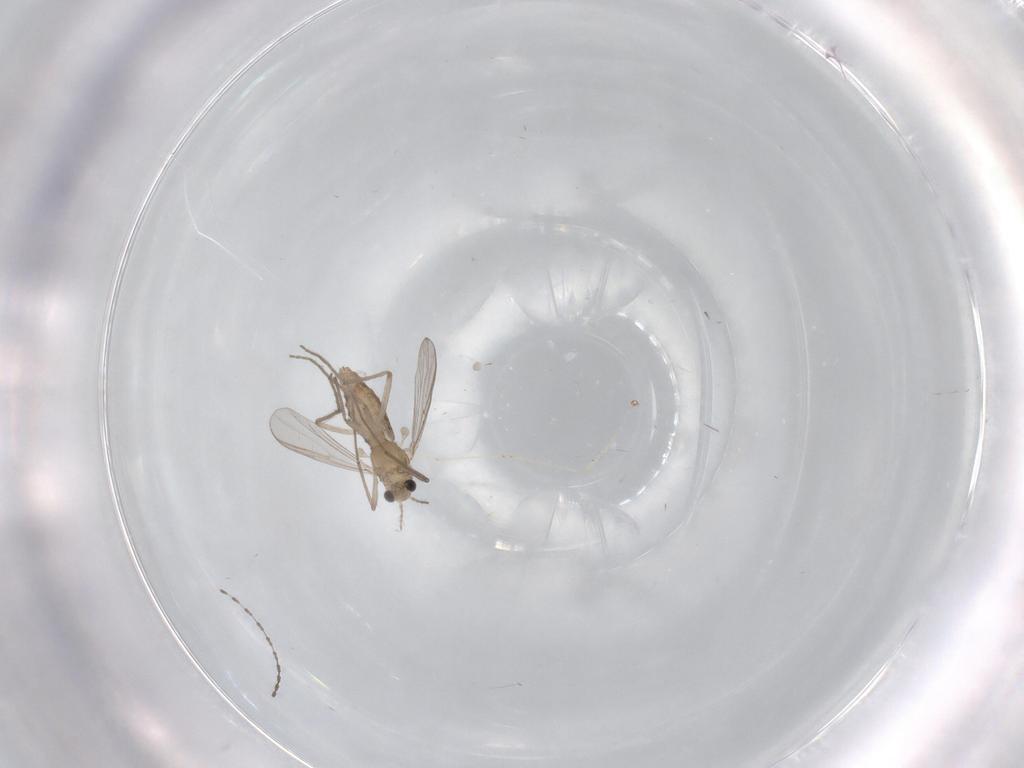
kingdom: Animalia
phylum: Arthropoda
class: Insecta
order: Diptera
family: Chironomidae
